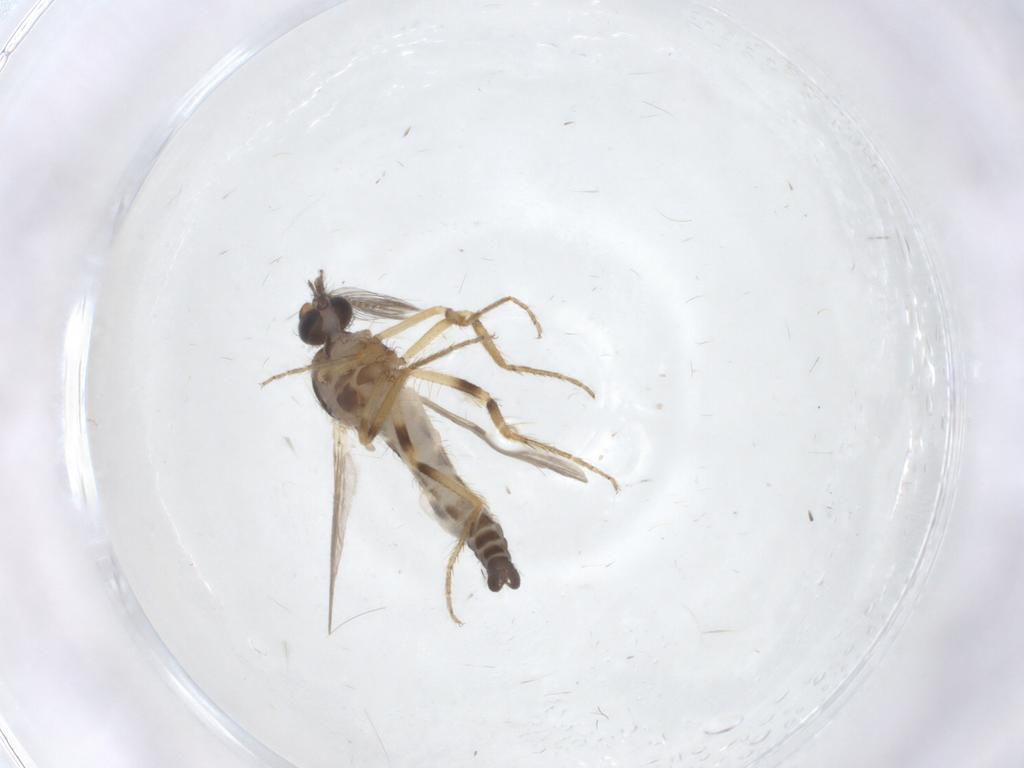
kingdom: Animalia
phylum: Arthropoda
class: Insecta
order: Diptera
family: Ceratopogonidae
